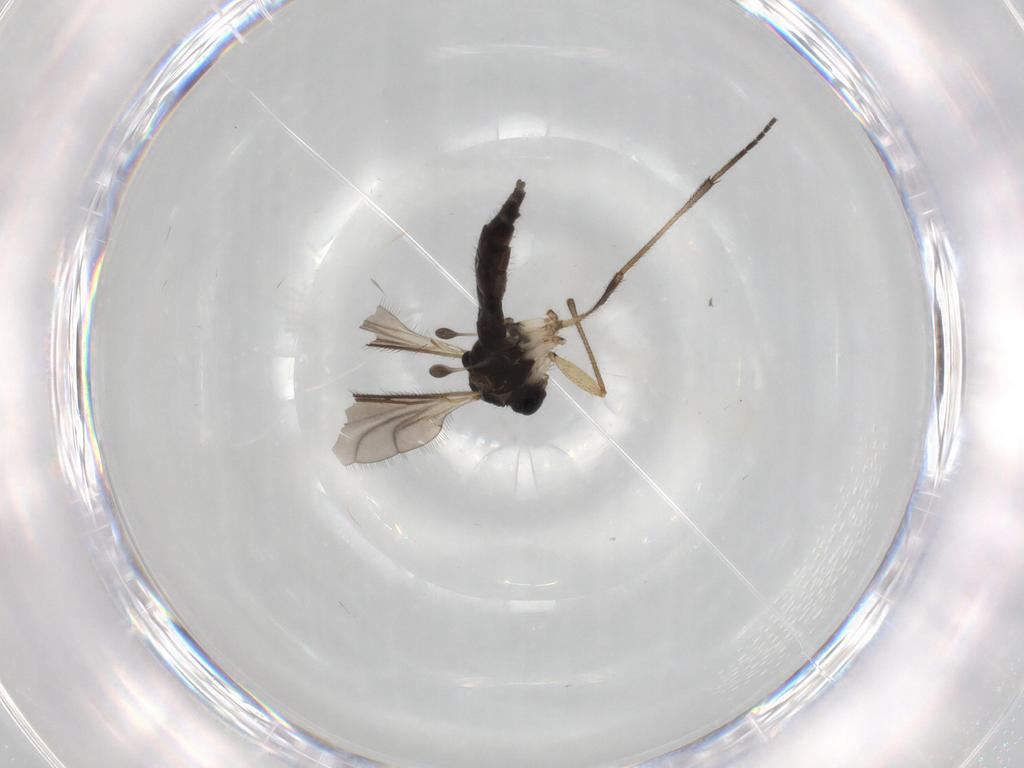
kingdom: Animalia
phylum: Arthropoda
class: Insecta
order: Diptera
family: Sciaridae
